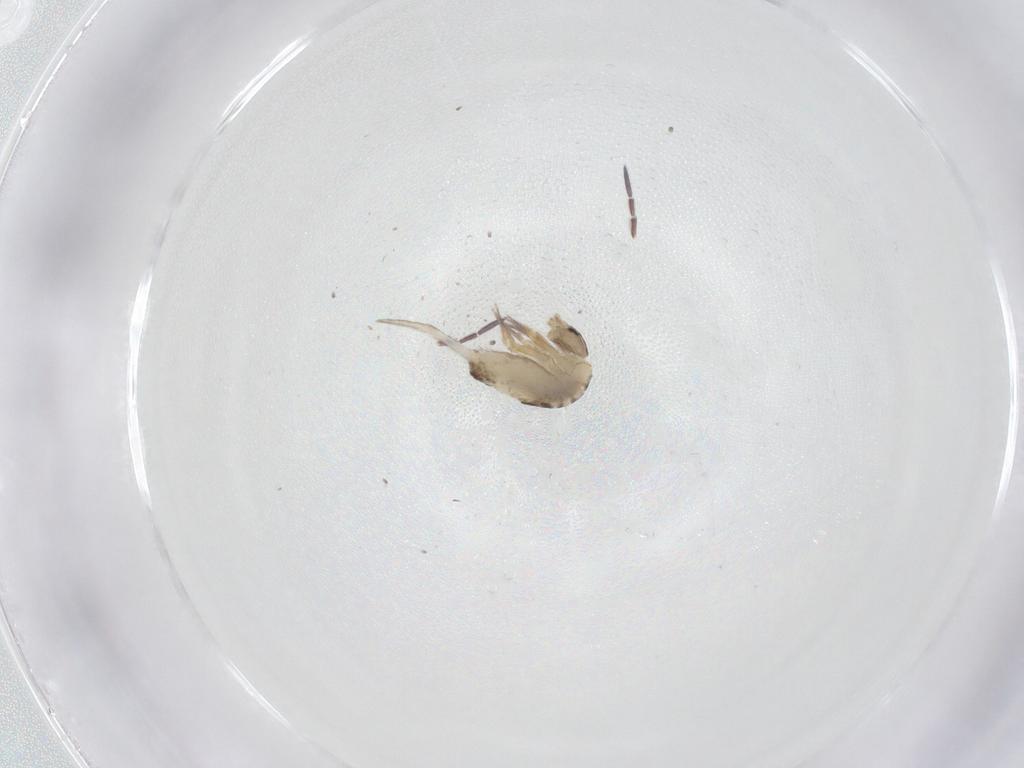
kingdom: Animalia
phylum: Arthropoda
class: Collembola
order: Entomobryomorpha
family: Entomobryidae
